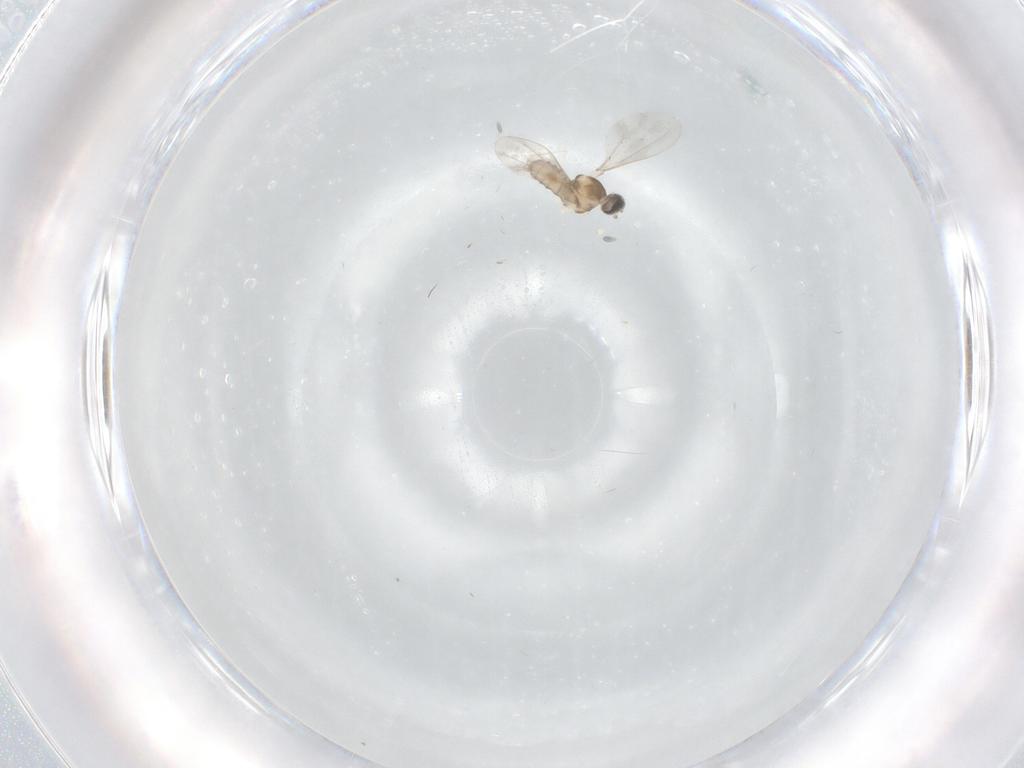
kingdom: Animalia
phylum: Arthropoda
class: Insecta
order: Diptera
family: Cecidomyiidae
